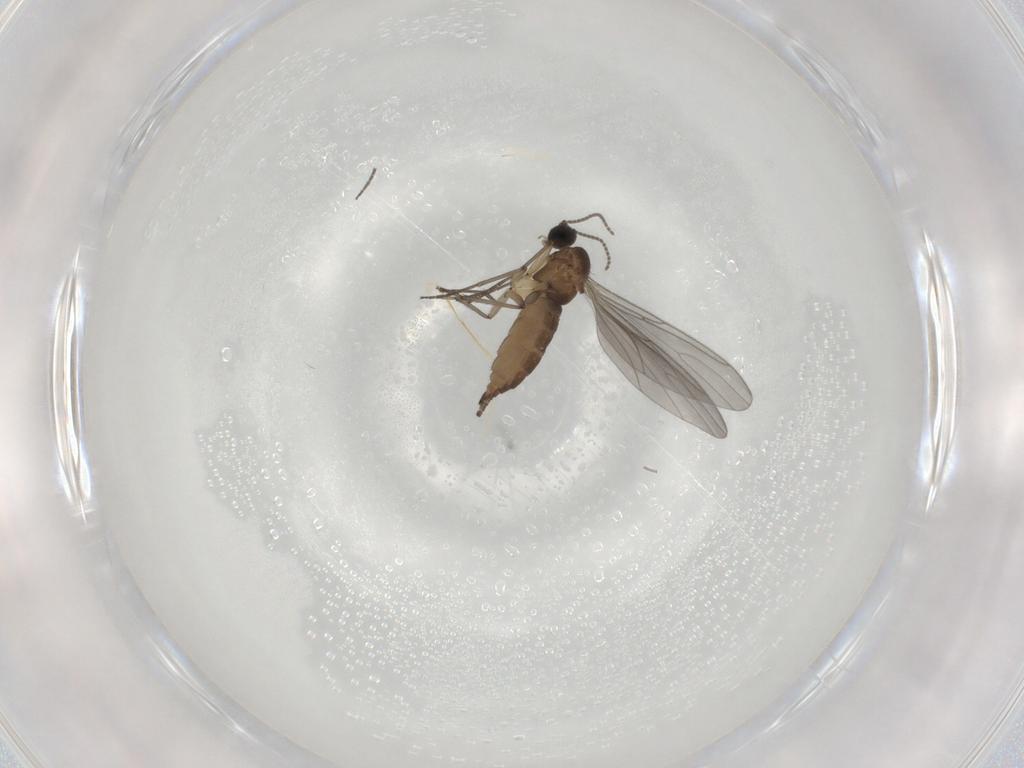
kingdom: Animalia
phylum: Arthropoda
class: Insecta
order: Diptera
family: Sciaridae
